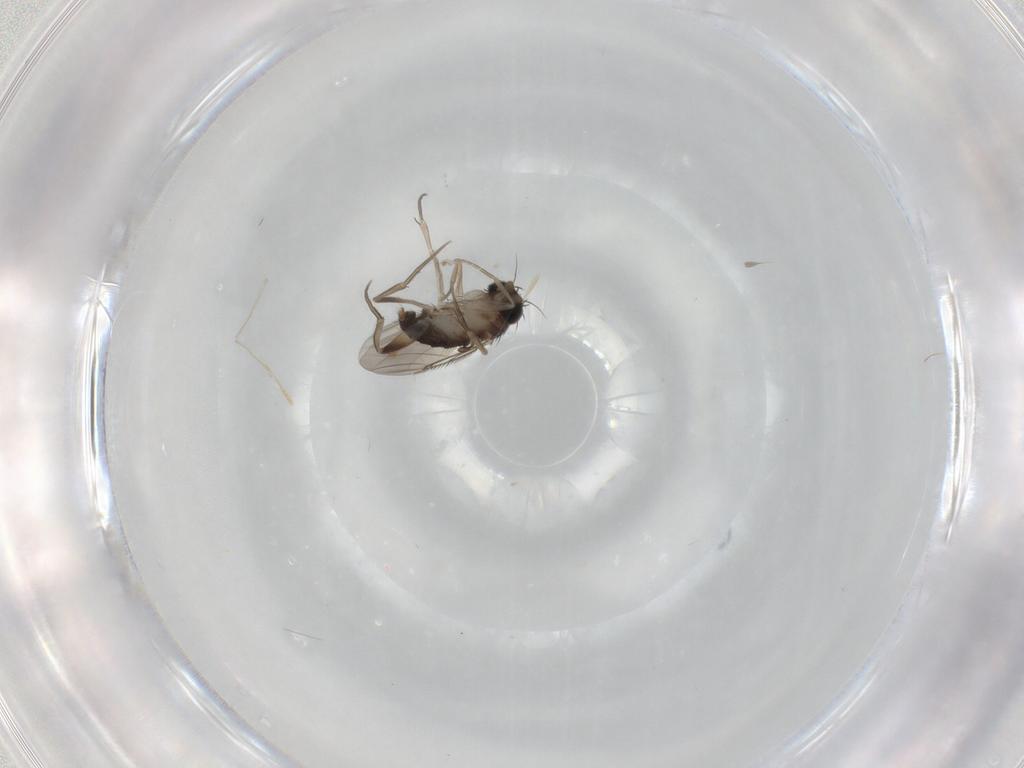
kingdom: Animalia
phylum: Arthropoda
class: Insecta
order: Diptera
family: Phoridae
